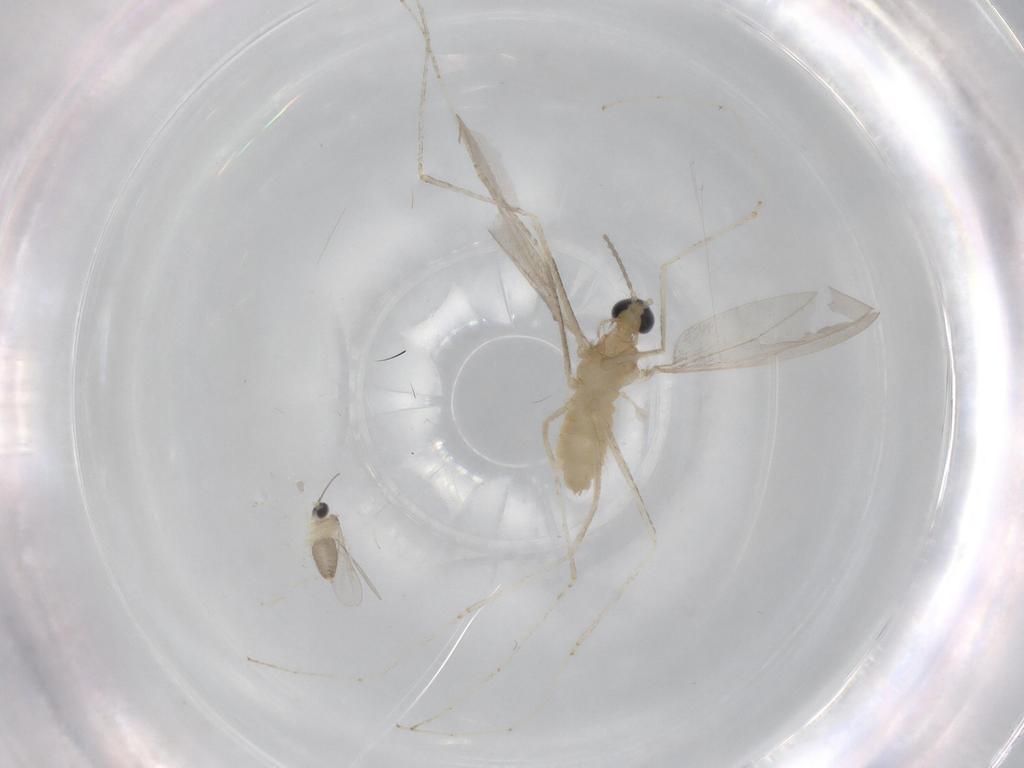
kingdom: Animalia
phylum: Arthropoda
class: Insecta
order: Diptera
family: Cecidomyiidae
